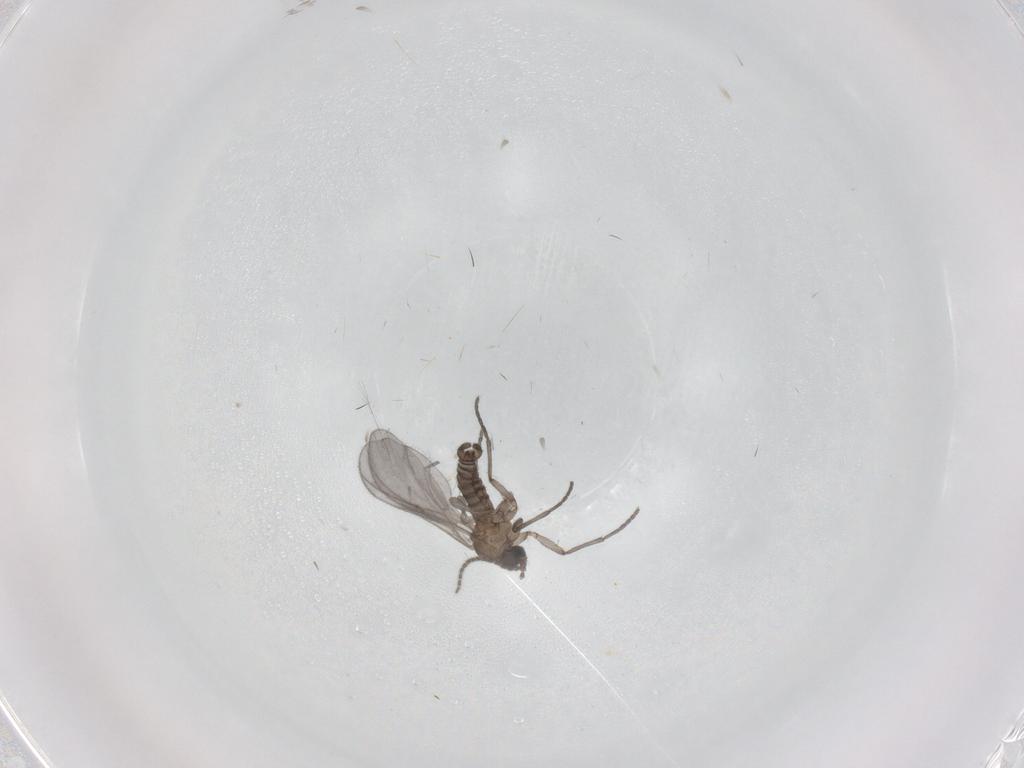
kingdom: Animalia
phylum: Arthropoda
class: Insecta
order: Diptera
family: Sciaridae
